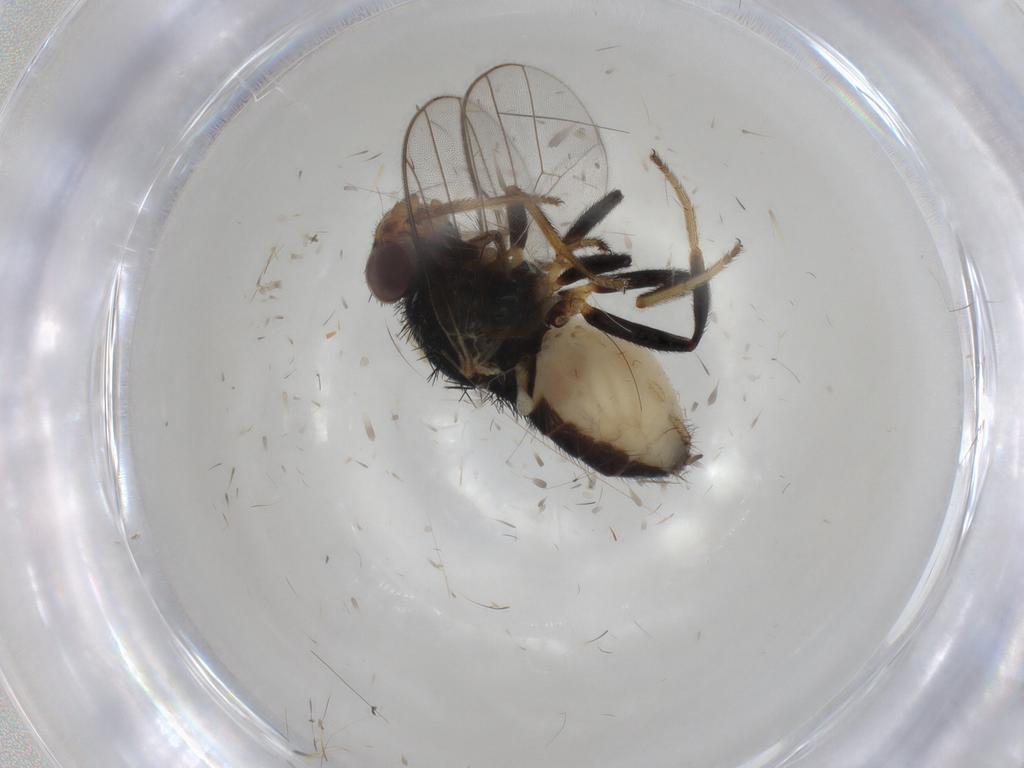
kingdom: Animalia
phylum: Arthropoda
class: Insecta
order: Diptera
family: Chloropidae
